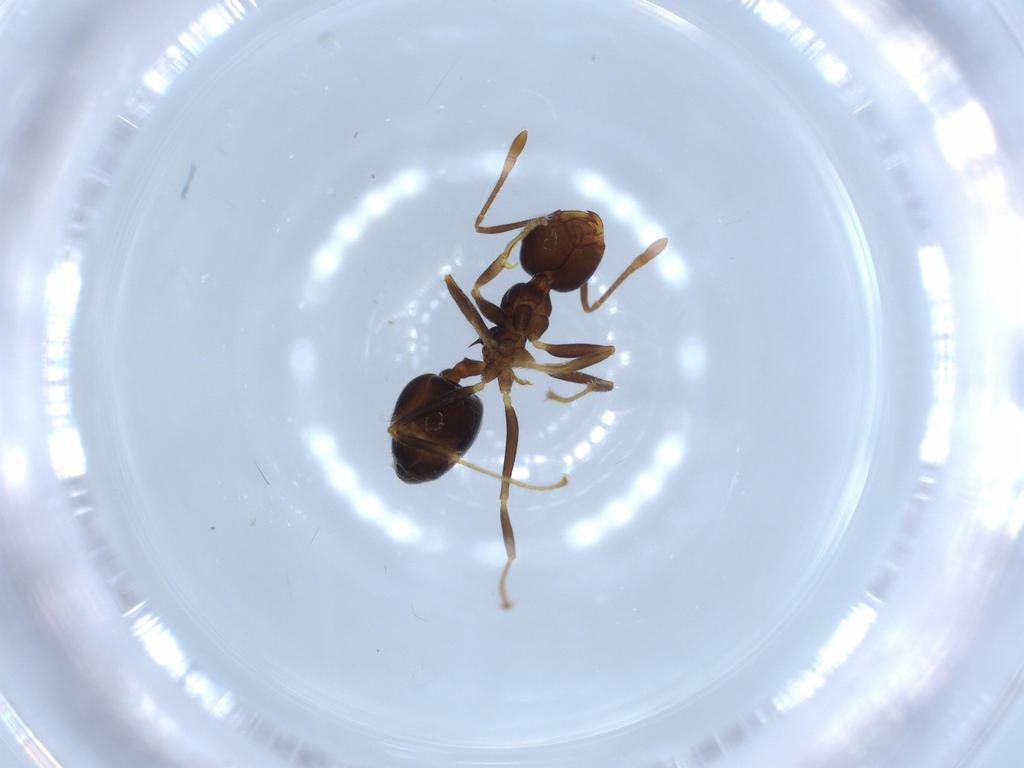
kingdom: Animalia
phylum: Arthropoda
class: Insecta
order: Hymenoptera
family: Formicidae
